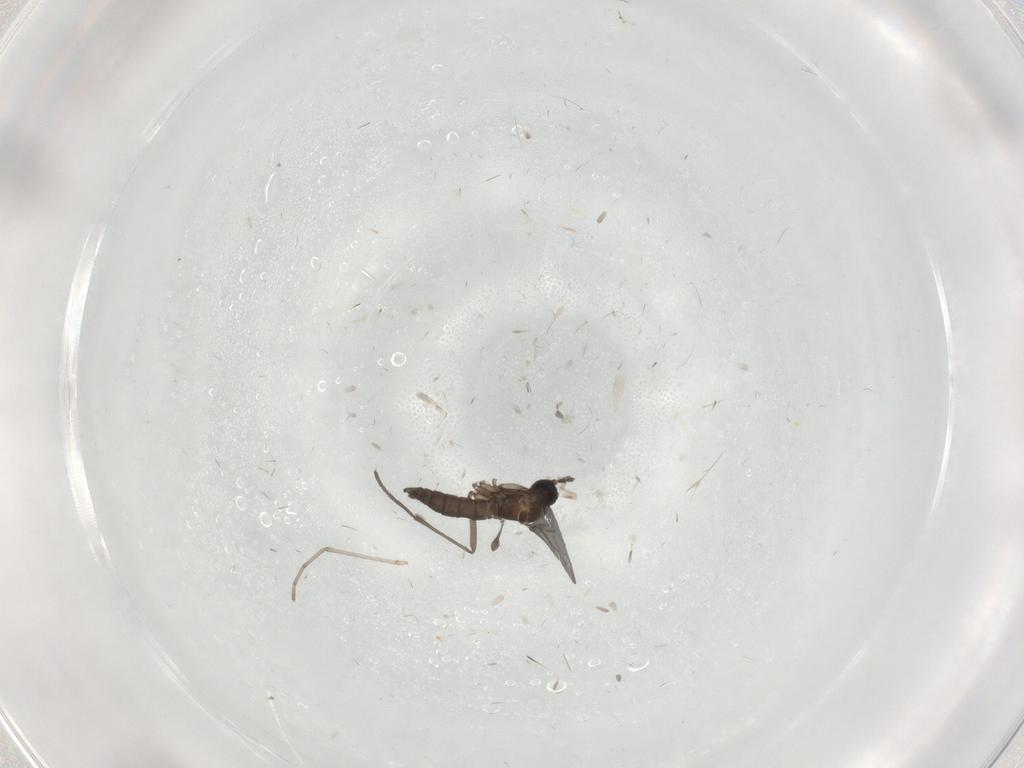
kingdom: Animalia
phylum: Arthropoda
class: Insecta
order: Diptera
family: Cecidomyiidae
